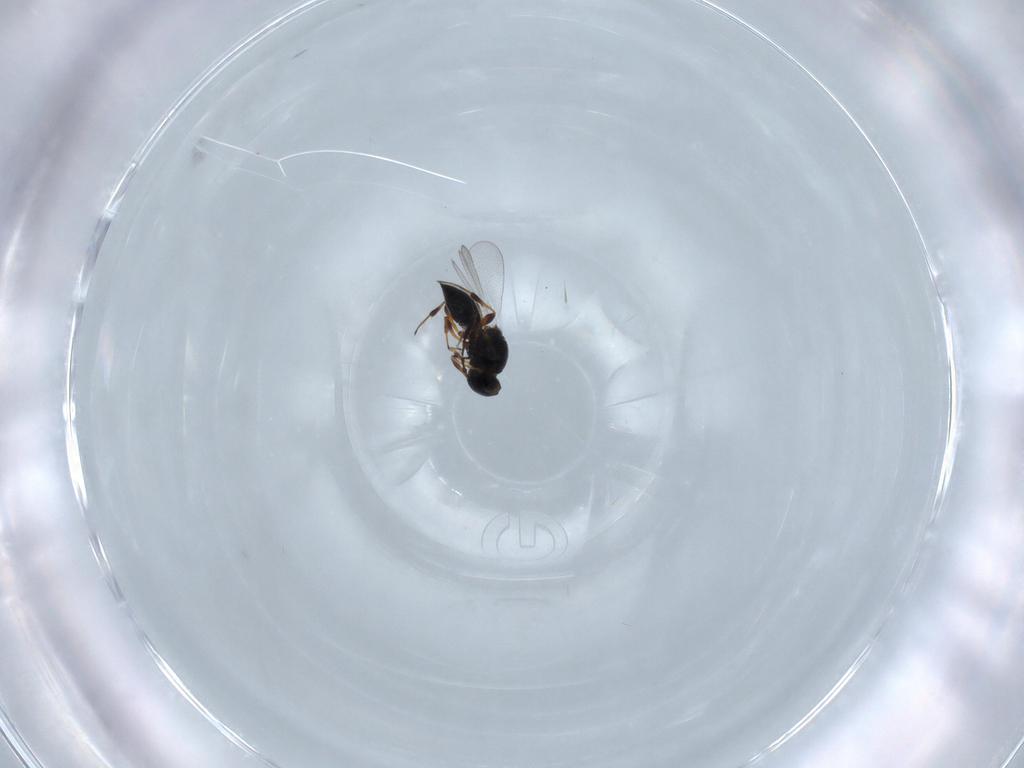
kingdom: Animalia
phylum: Arthropoda
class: Insecta
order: Hymenoptera
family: Platygastridae
